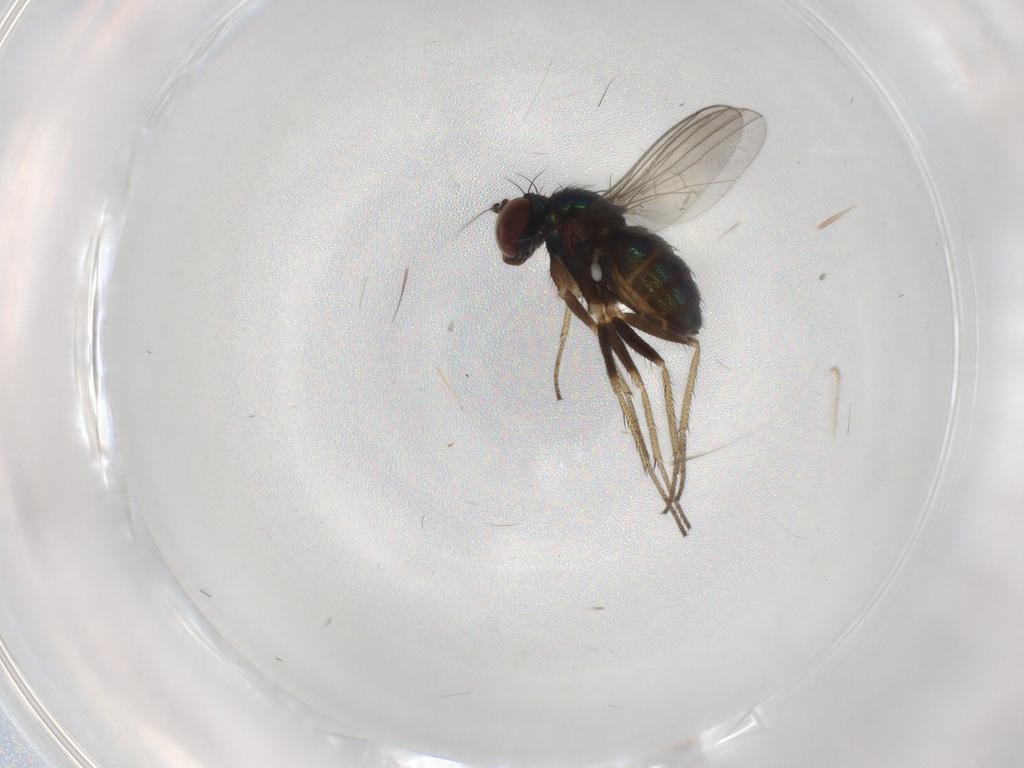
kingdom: Animalia
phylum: Arthropoda
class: Insecta
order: Diptera
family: Dolichopodidae
